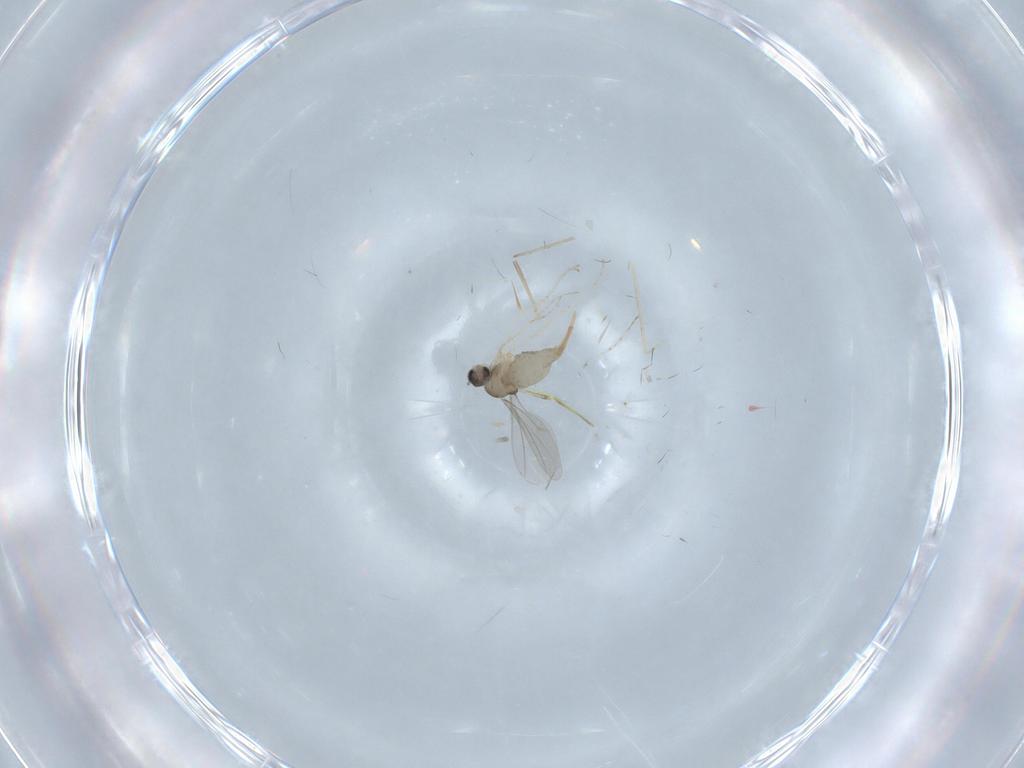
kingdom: Animalia
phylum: Arthropoda
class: Insecta
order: Diptera
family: Cecidomyiidae
